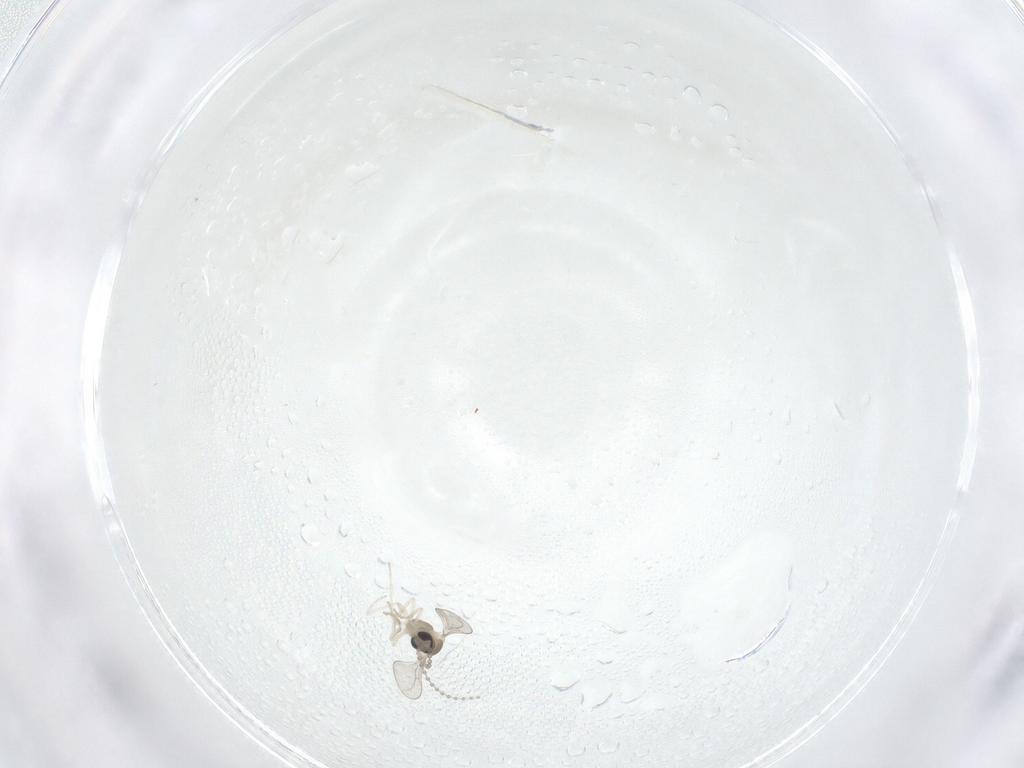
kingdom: Animalia
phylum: Arthropoda
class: Insecta
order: Diptera
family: Cecidomyiidae
